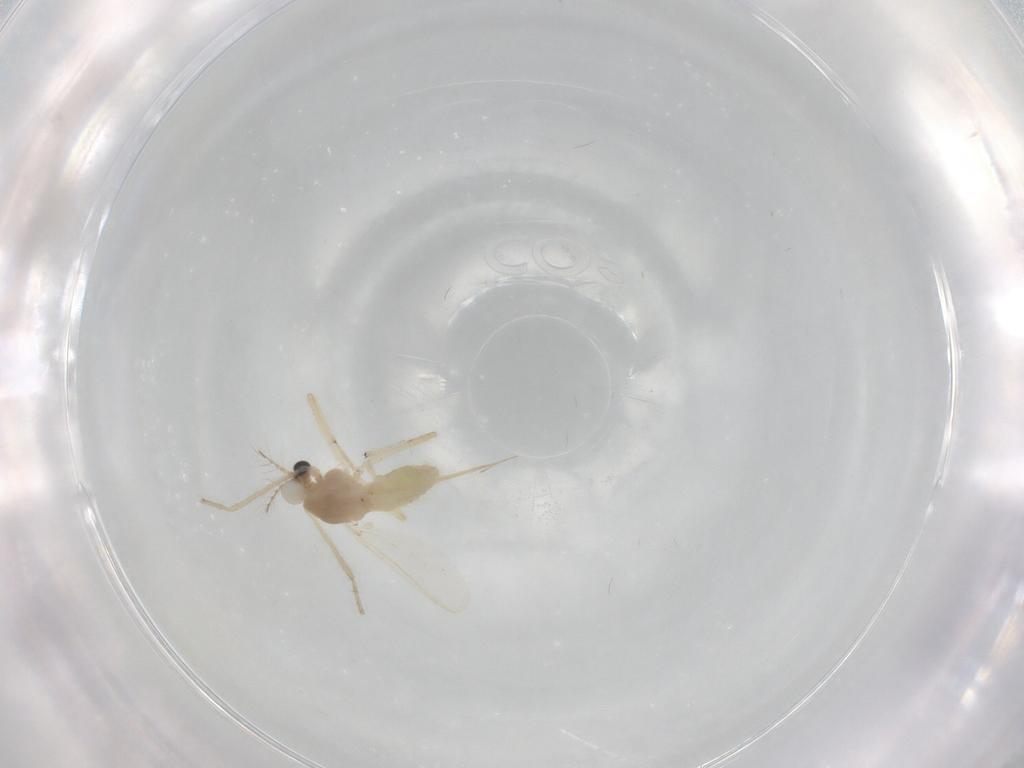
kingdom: Animalia
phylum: Arthropoda
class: Insecta
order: Diptera
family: Chironomidae
